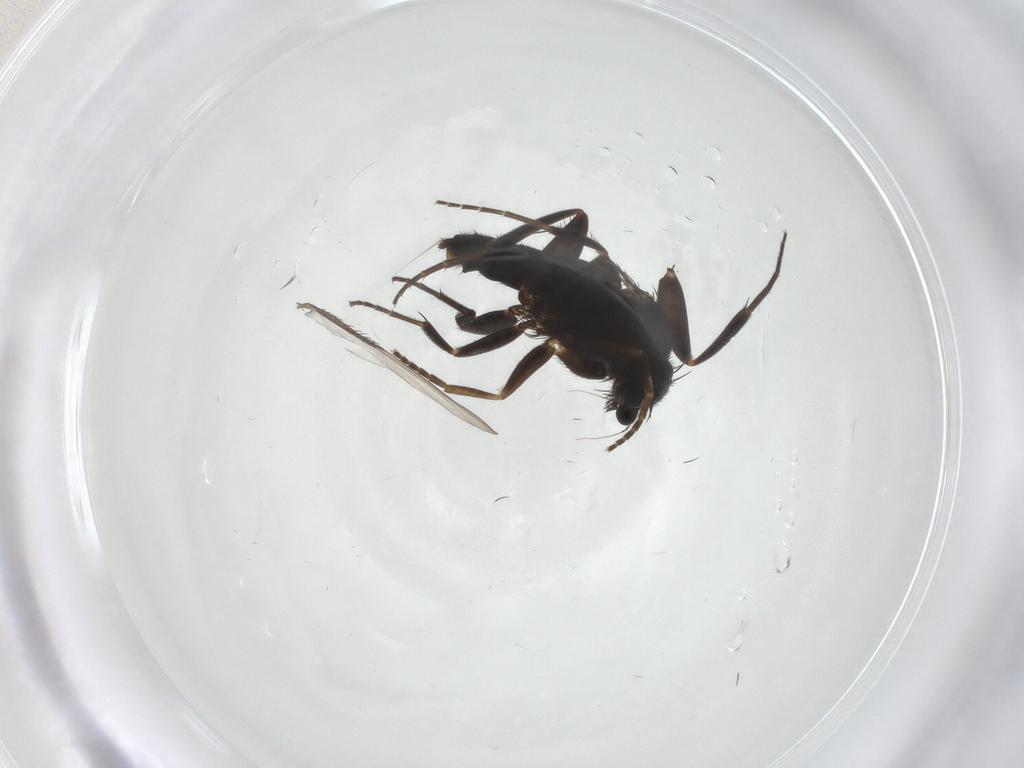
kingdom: Animalia
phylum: Arthropoda
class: Insecta
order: Diptera
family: Phoridae
